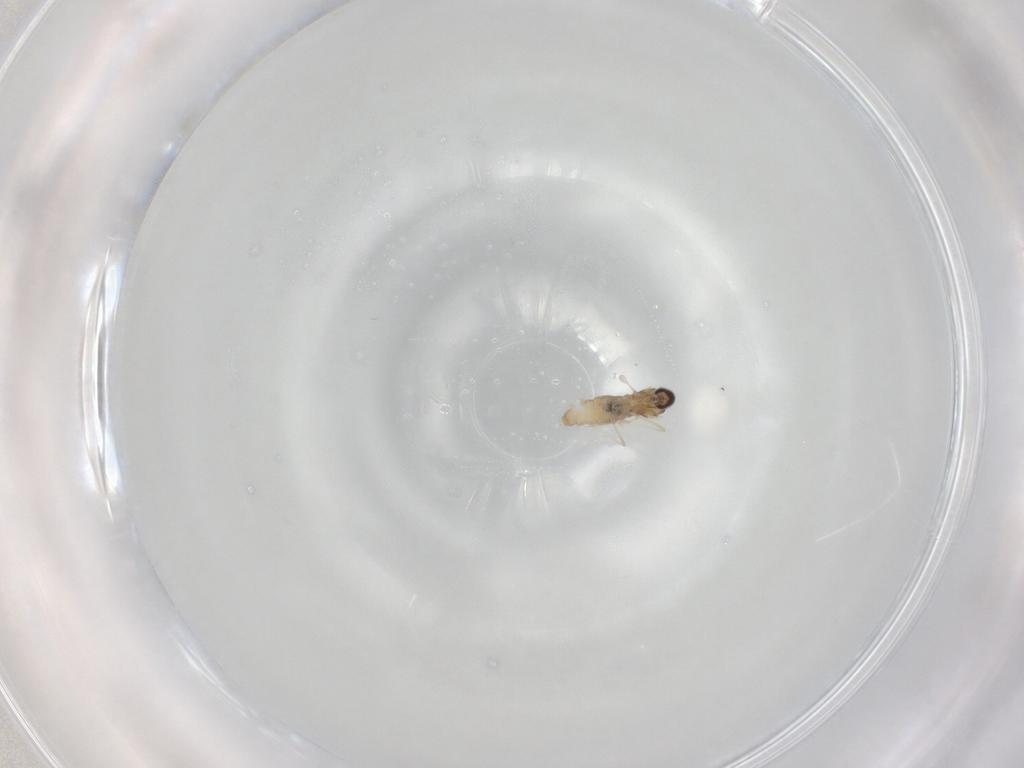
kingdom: Animalia
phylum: Arthropoda
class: Insecta
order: Diptera
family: Cecidomyiidae
